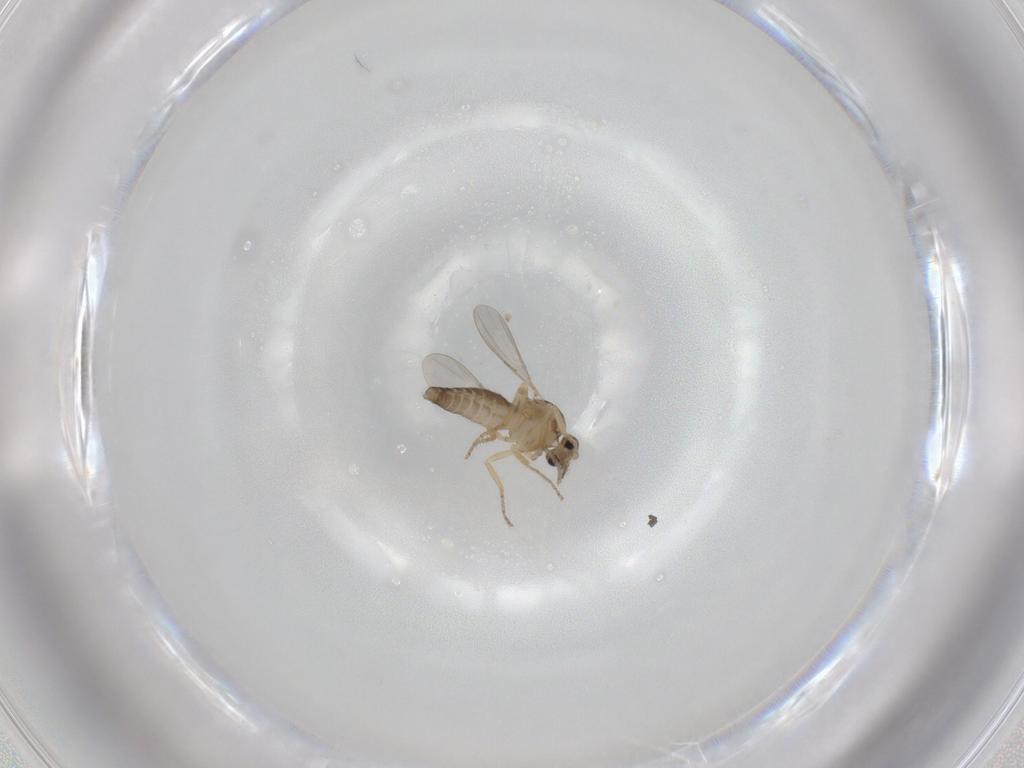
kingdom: Animalia
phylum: Arthropoda
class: Insecta
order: Diptera
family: Ceratopogonidae
